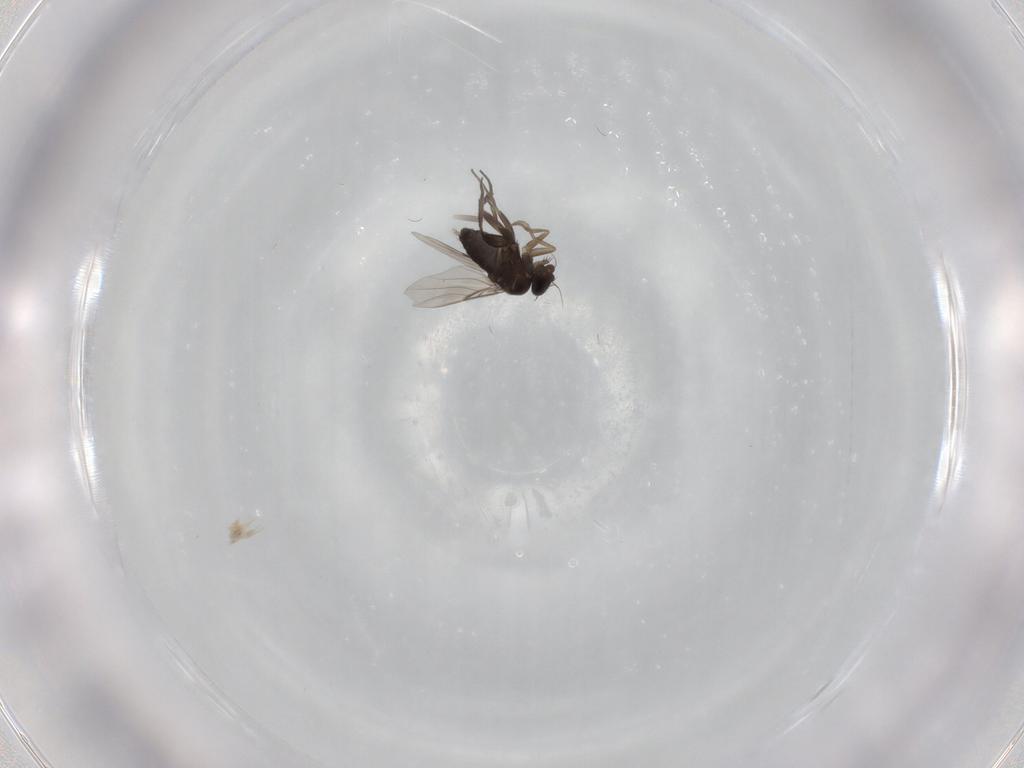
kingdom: Animalia
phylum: Arthropoda
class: Insecta
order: Diptera
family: Phoridae
